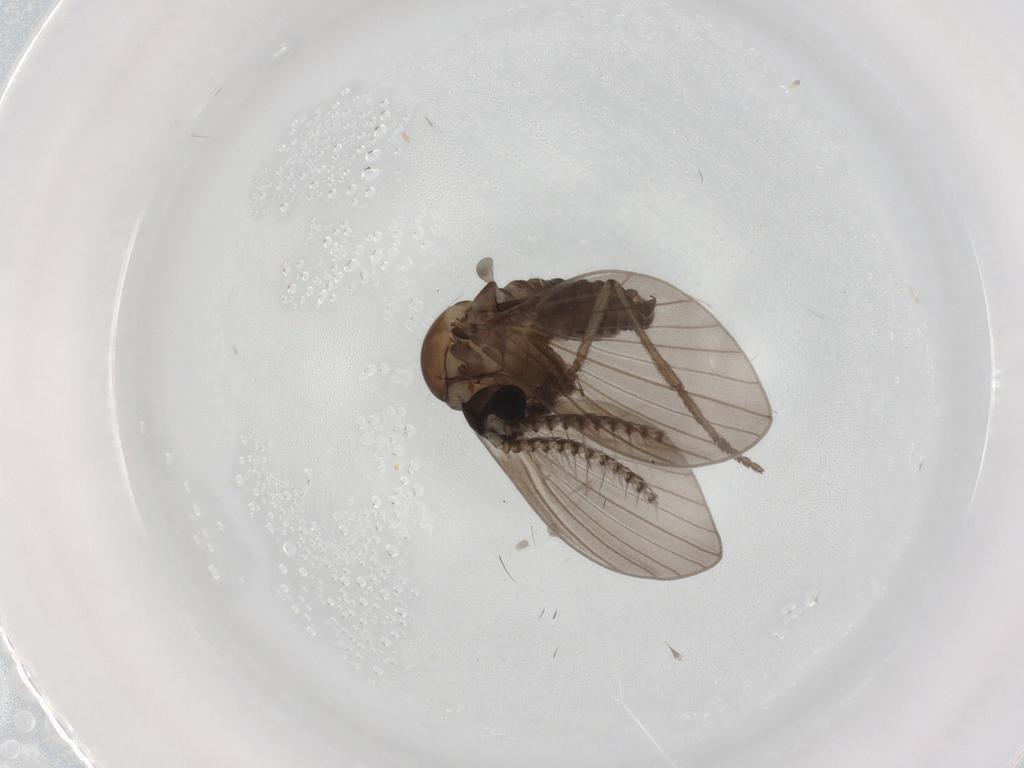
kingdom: Animalia
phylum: Arthropoda
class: Insecta
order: Diptera
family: Psychodidae
